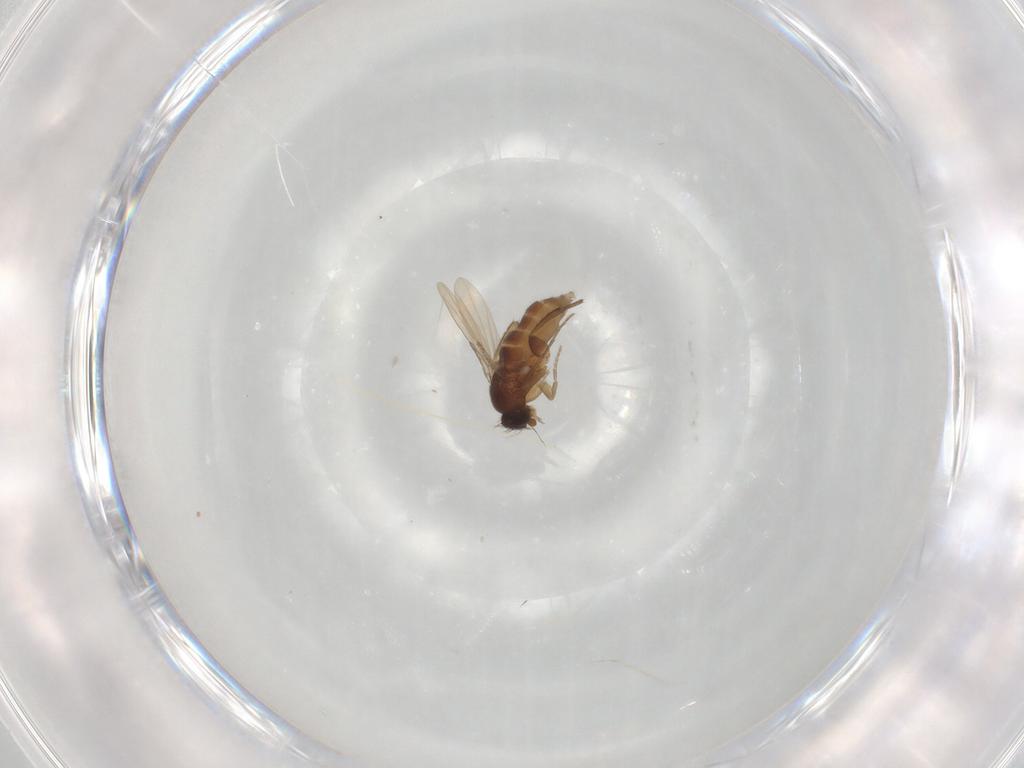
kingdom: Animalia
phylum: Arthropoda
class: Insecta
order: Diptera
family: Phoridae
